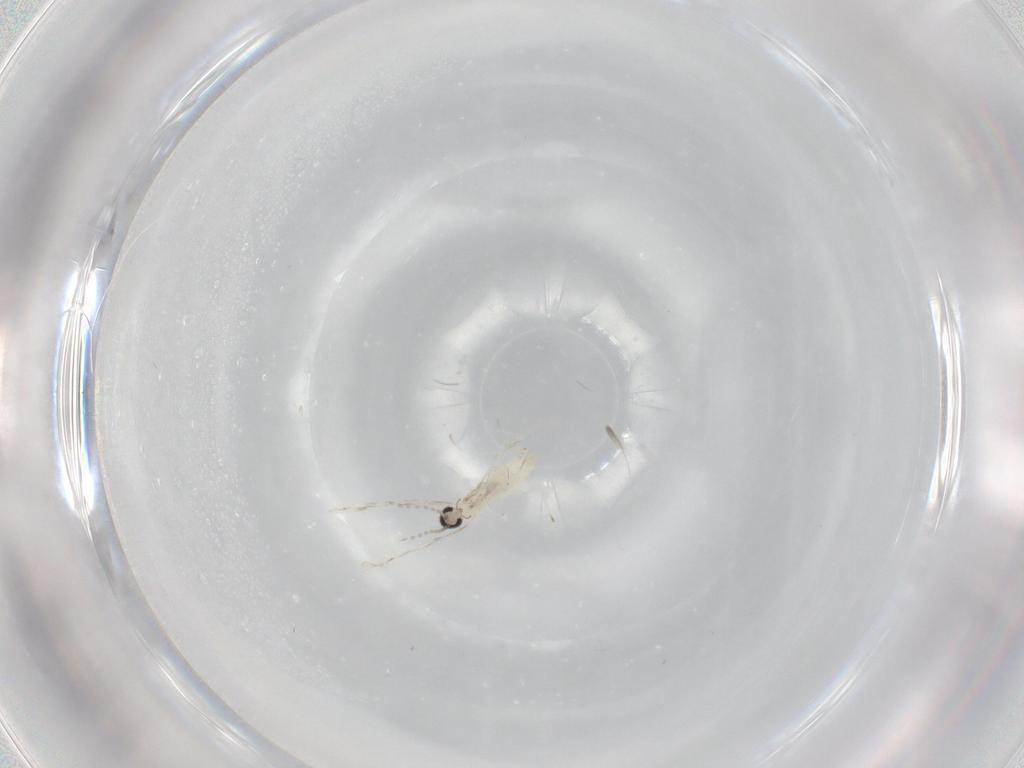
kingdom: Animalia
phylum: Arthropoda
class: Insecta
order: Diptera
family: Cecidomyiidae
